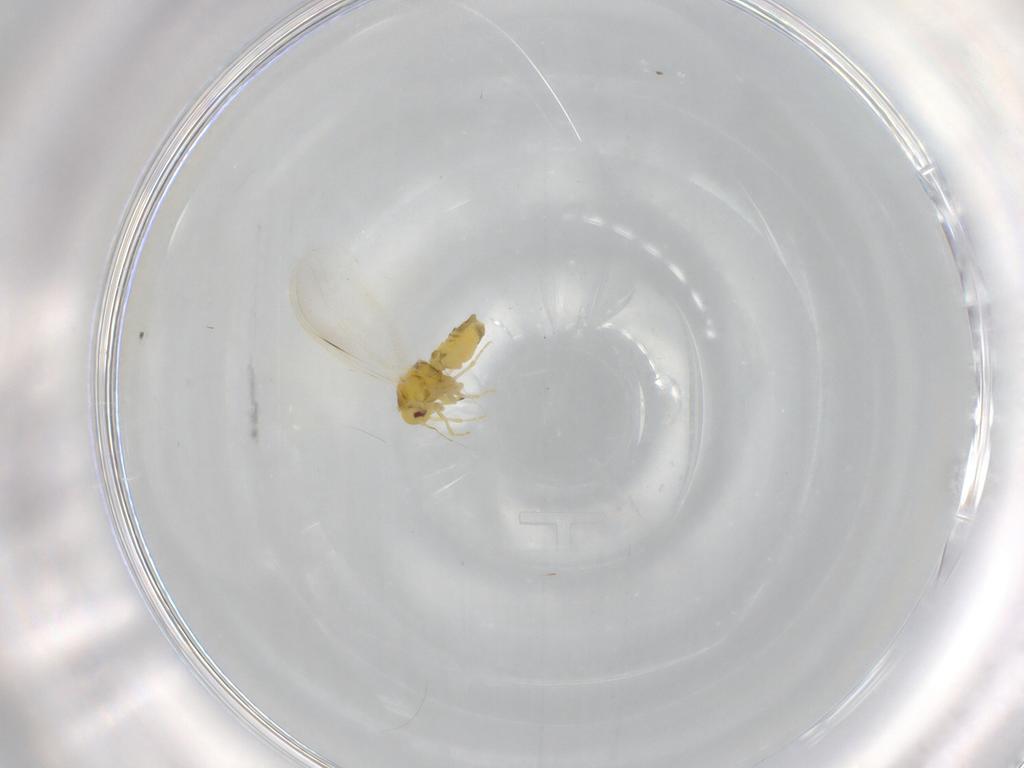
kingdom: Animalia
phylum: Arthropoda
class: Insecta
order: Hemiptera
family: Aleyrodidae
